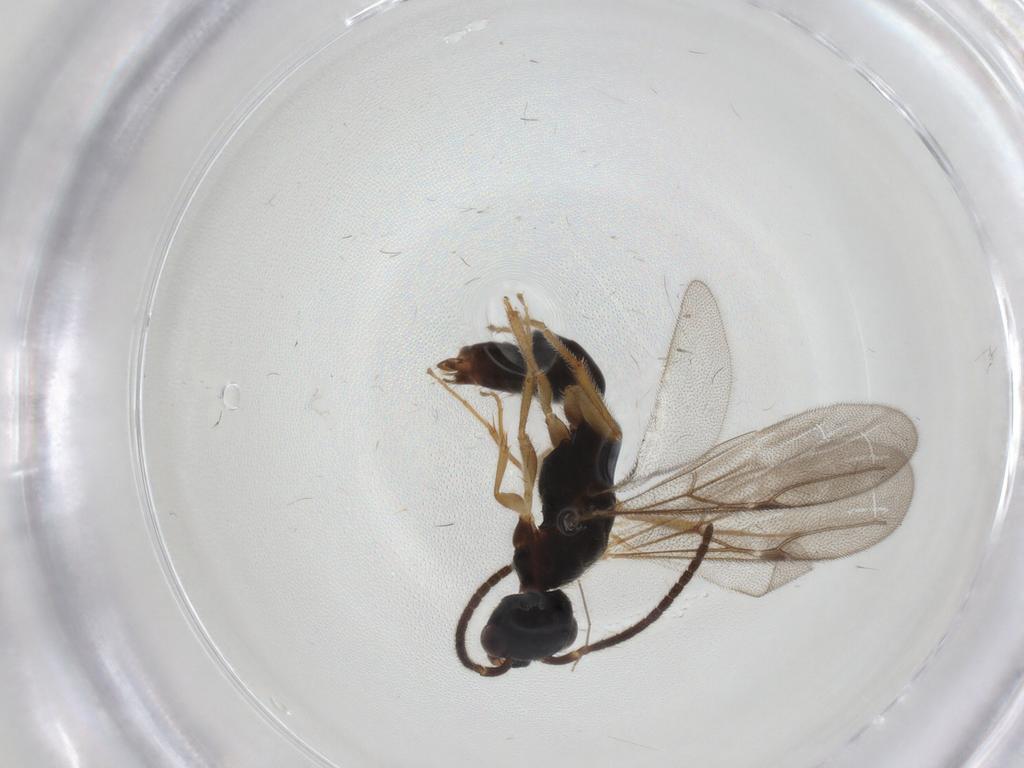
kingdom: Animalia
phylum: Arthropoda
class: Insecta
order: Hymenoptera
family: Bethylidae
